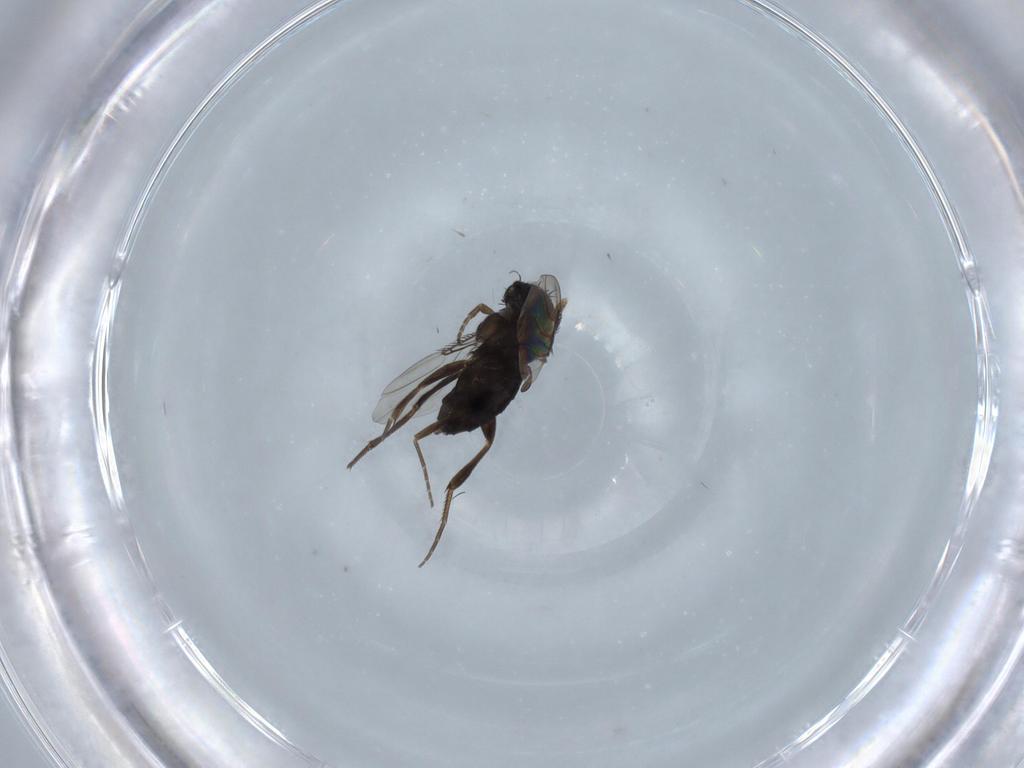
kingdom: Animalia
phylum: Arthropoda
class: Insecta
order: Diptera
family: Phoridae
